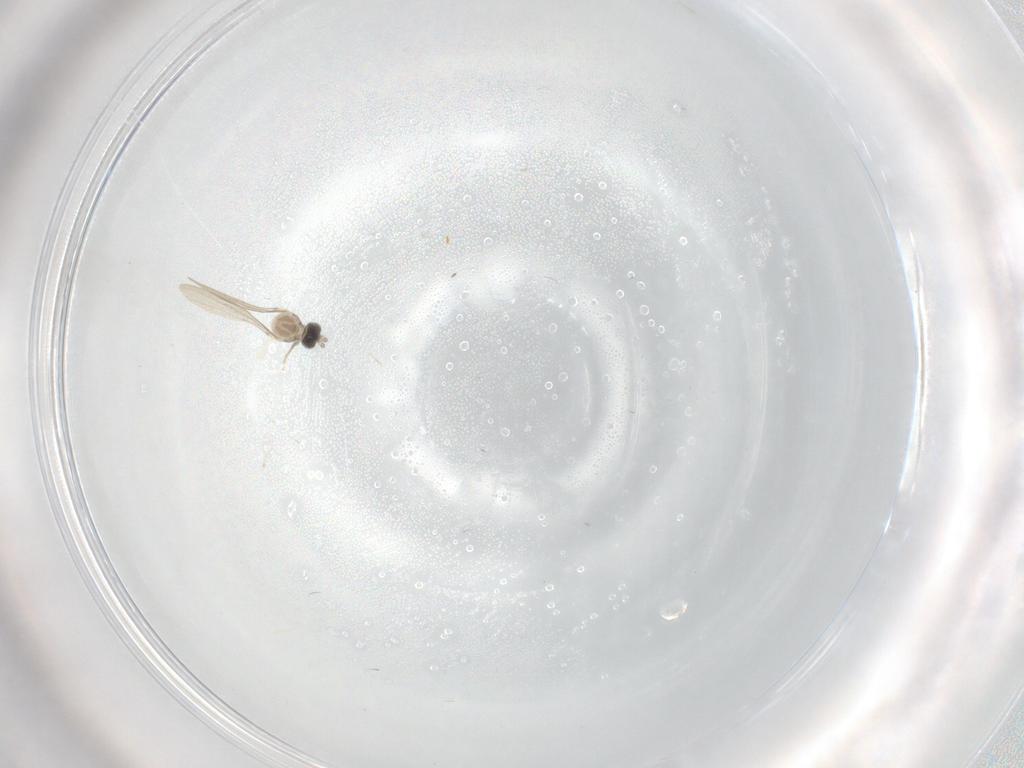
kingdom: Animalia
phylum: Arthropoda
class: Insecta
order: Diptera
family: Cecidomyiidae
